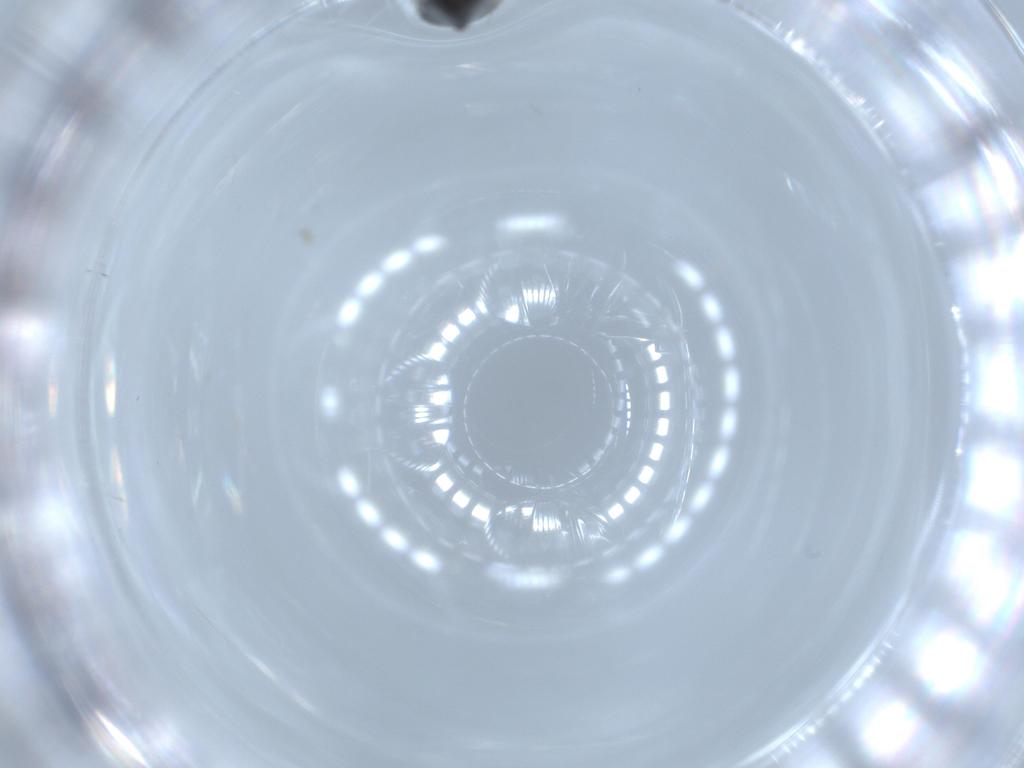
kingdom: Animalia
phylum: Arthropoda
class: Insecta
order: Diptera
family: Phoridae
